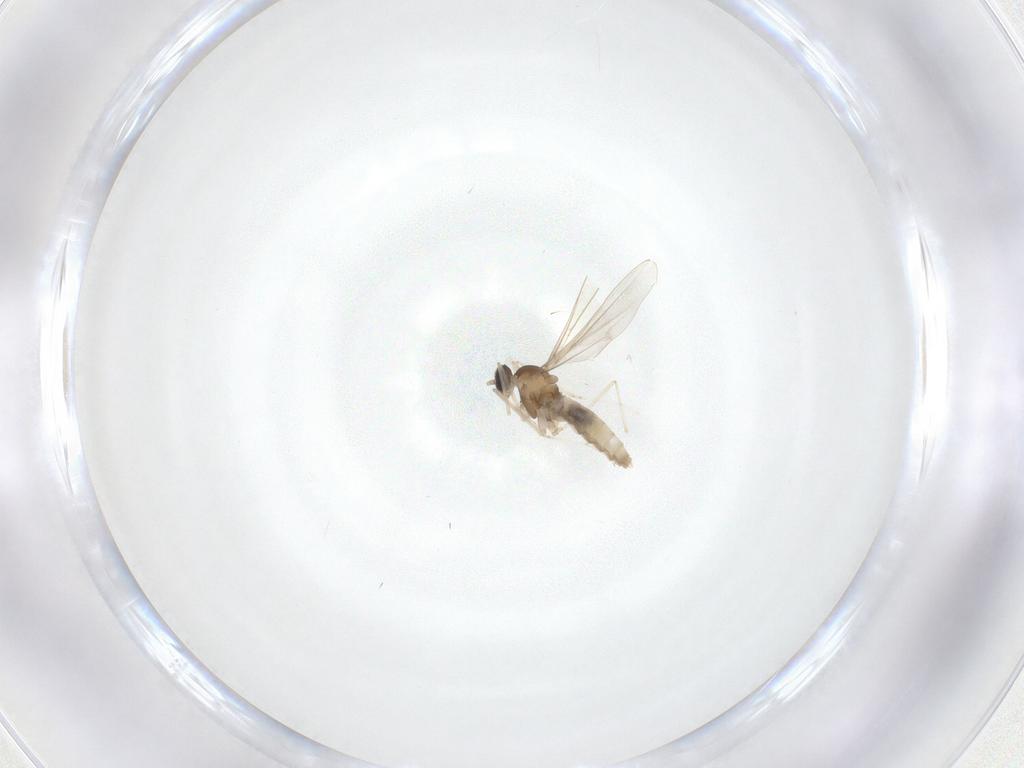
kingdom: Animalia
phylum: Arthropoda
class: Insecta
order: Diptera
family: Cecidomyiidae
